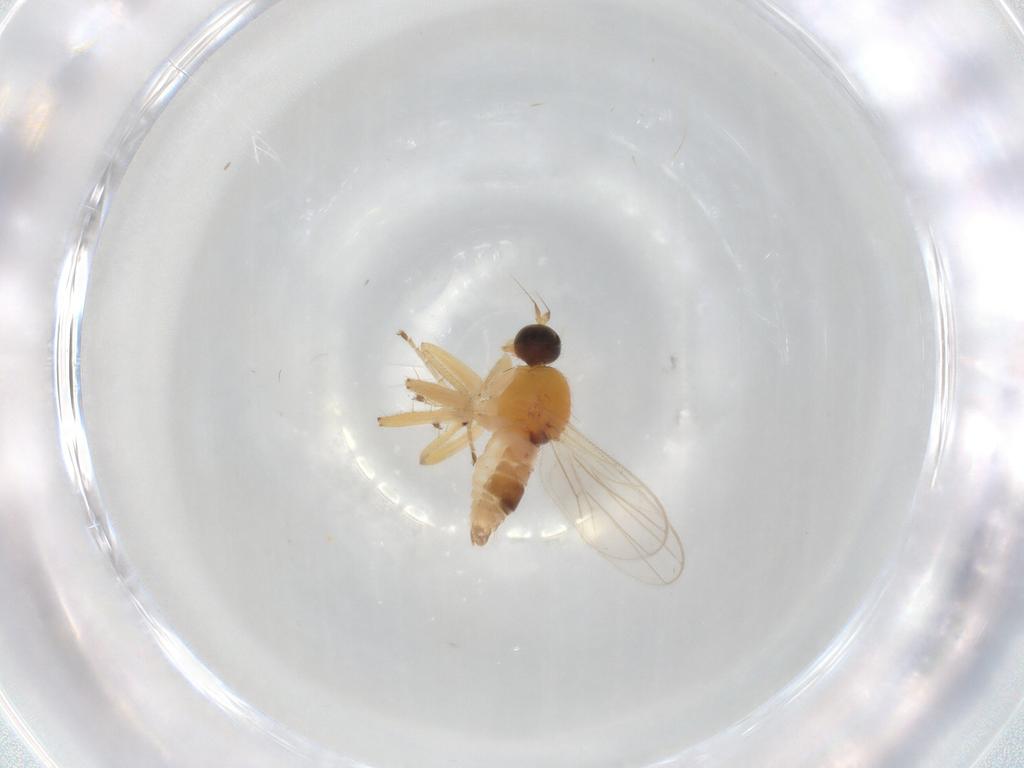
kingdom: Animalia
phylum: Arthropoda
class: Insecta
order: Diptera
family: Hybotidae
